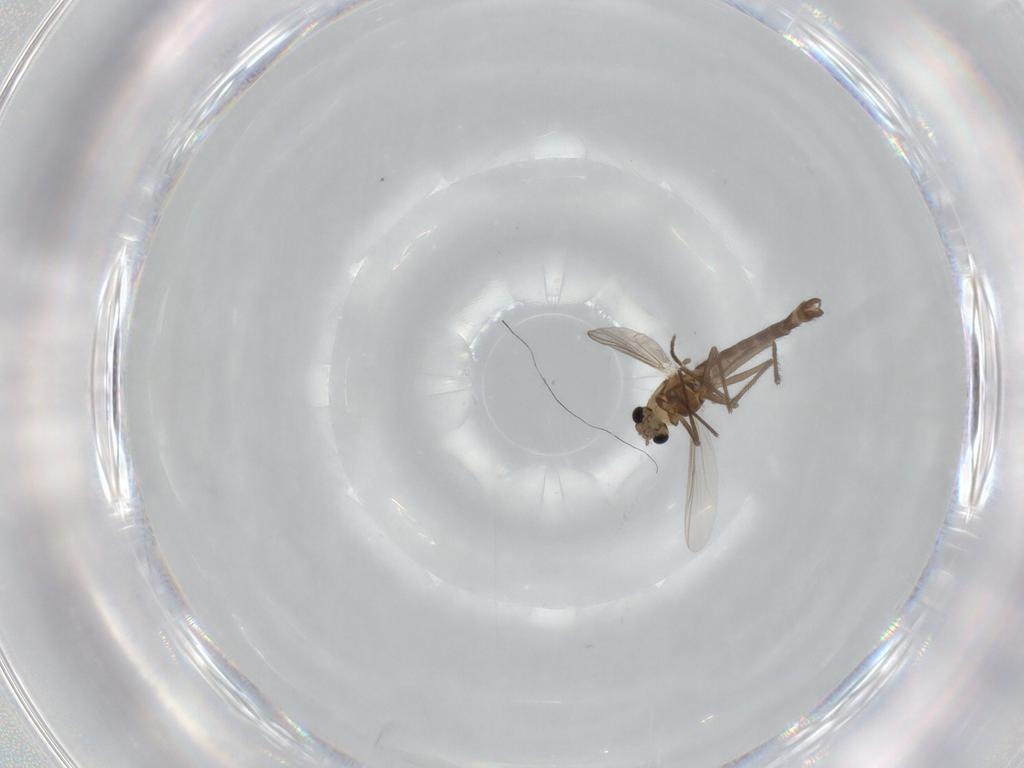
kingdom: Animalia
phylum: Arthropoda
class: Insecta
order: Diptera
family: Chironomidae
